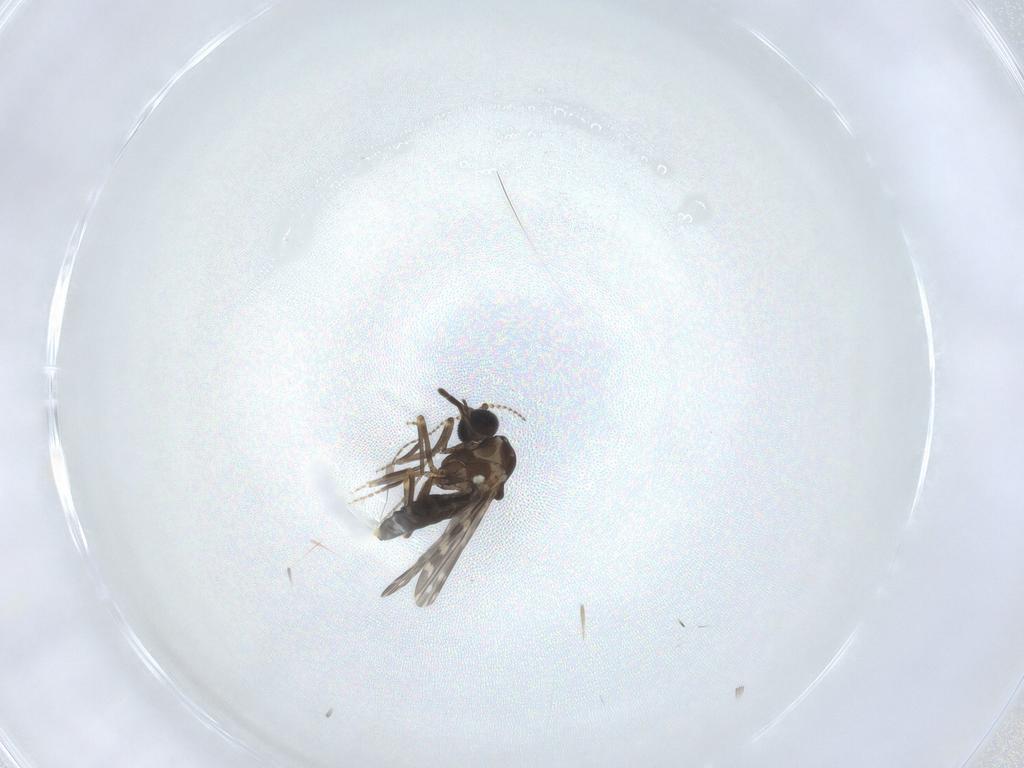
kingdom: Animalia
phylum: Arthropoda
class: Insecta
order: Diptera
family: Ceratopogonidae
